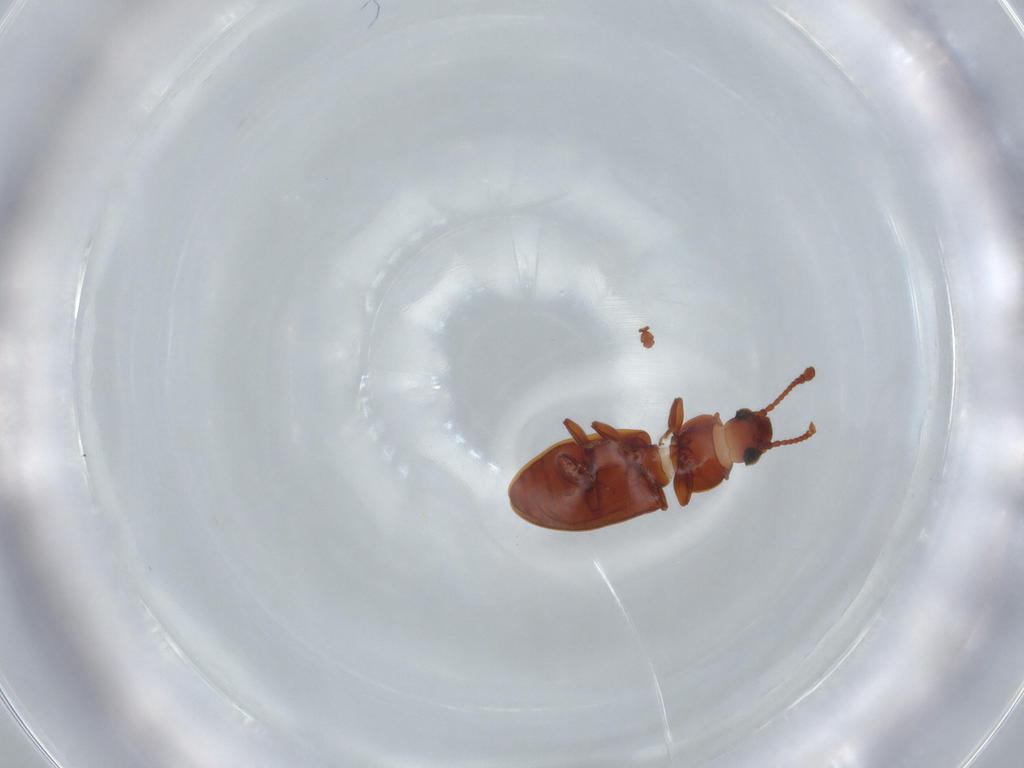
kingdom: Animalia
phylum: Arthropoda
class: Insecta
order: Coleoptera
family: Silvanidae
